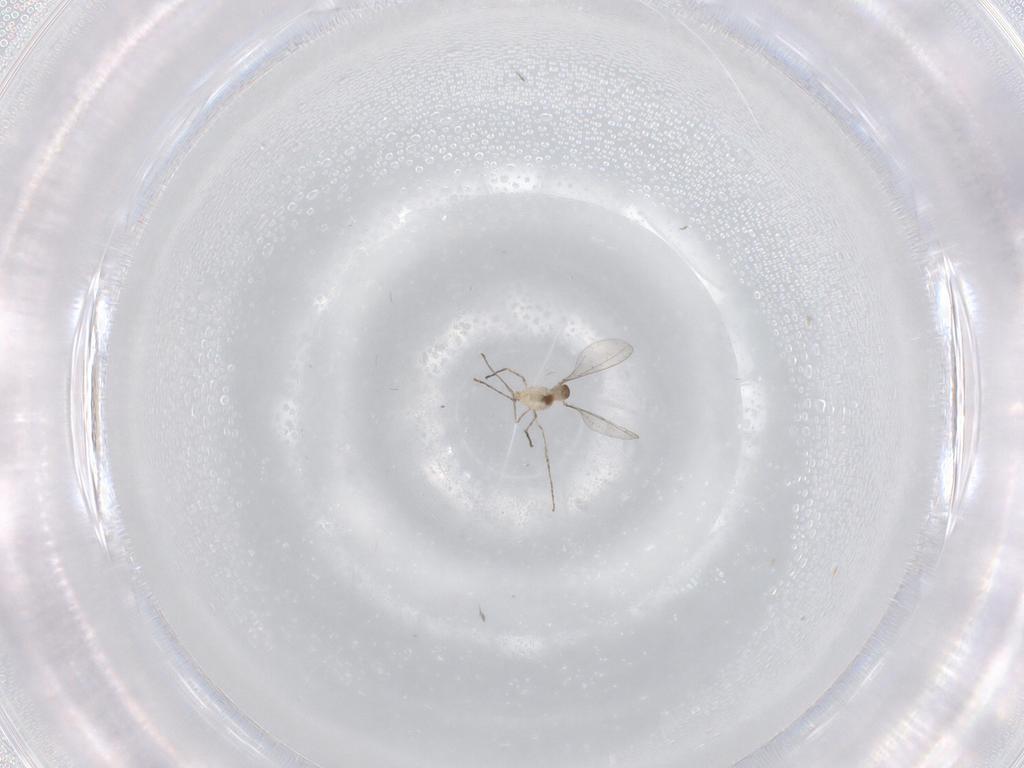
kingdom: Animalia
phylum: Arthropoda
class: Insecta
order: Diptera
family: Cecidomyiidae
